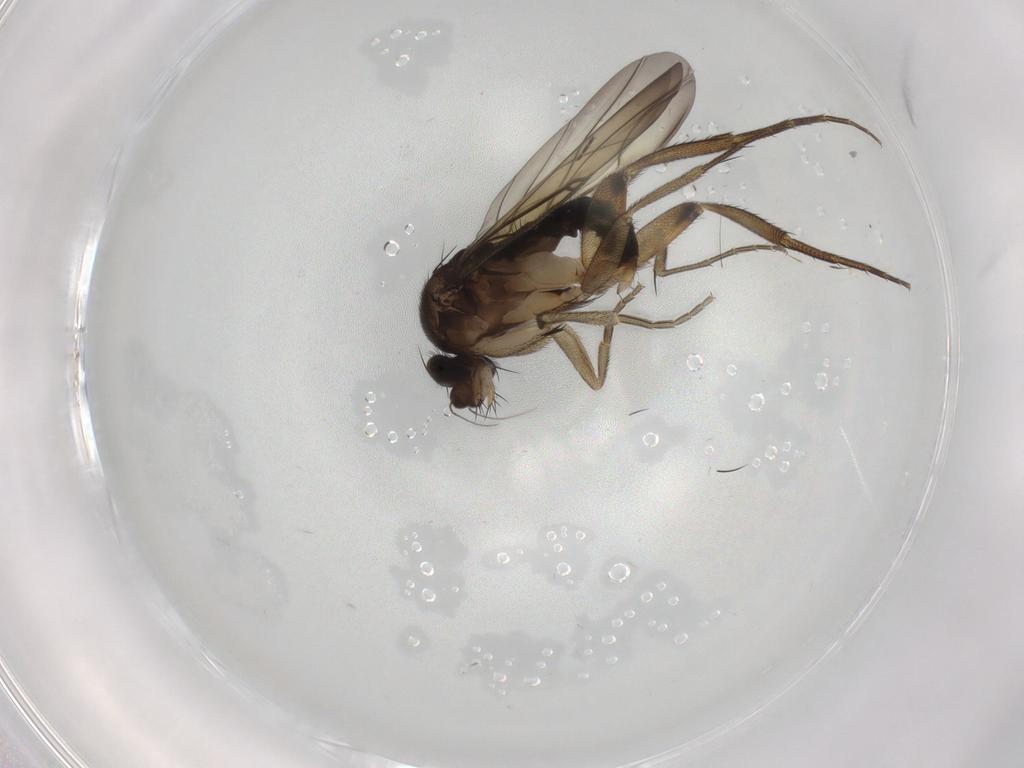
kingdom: Animalia
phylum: Arthropoda
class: Insecta
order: Diptera
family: Phoridae
